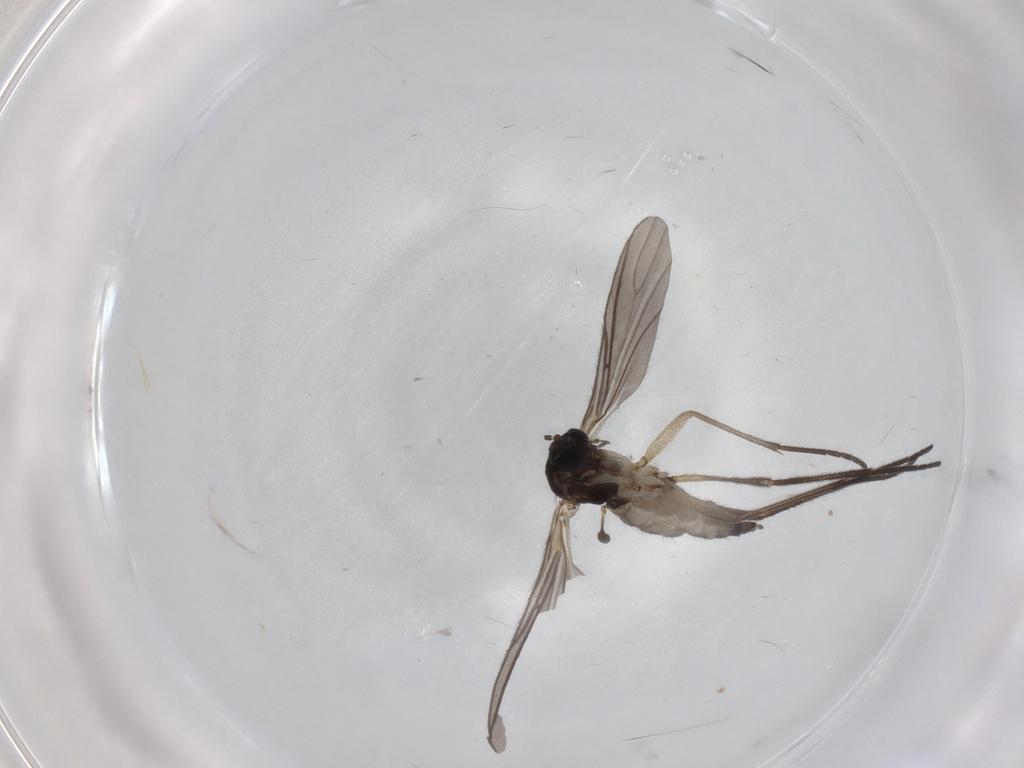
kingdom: Animalia
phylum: Arthropoda
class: Insecta
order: Diptera
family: Sciaridae
